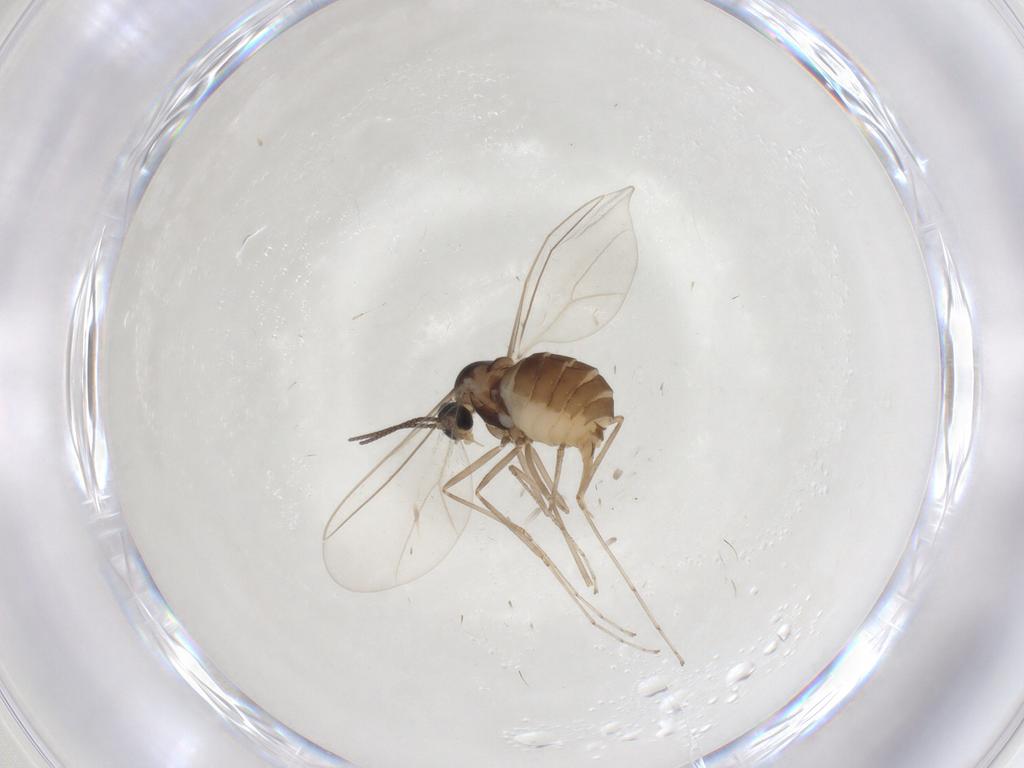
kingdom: Animalia
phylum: Arthropoda
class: Insecta
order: Diptera
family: Cecidomyiidae
